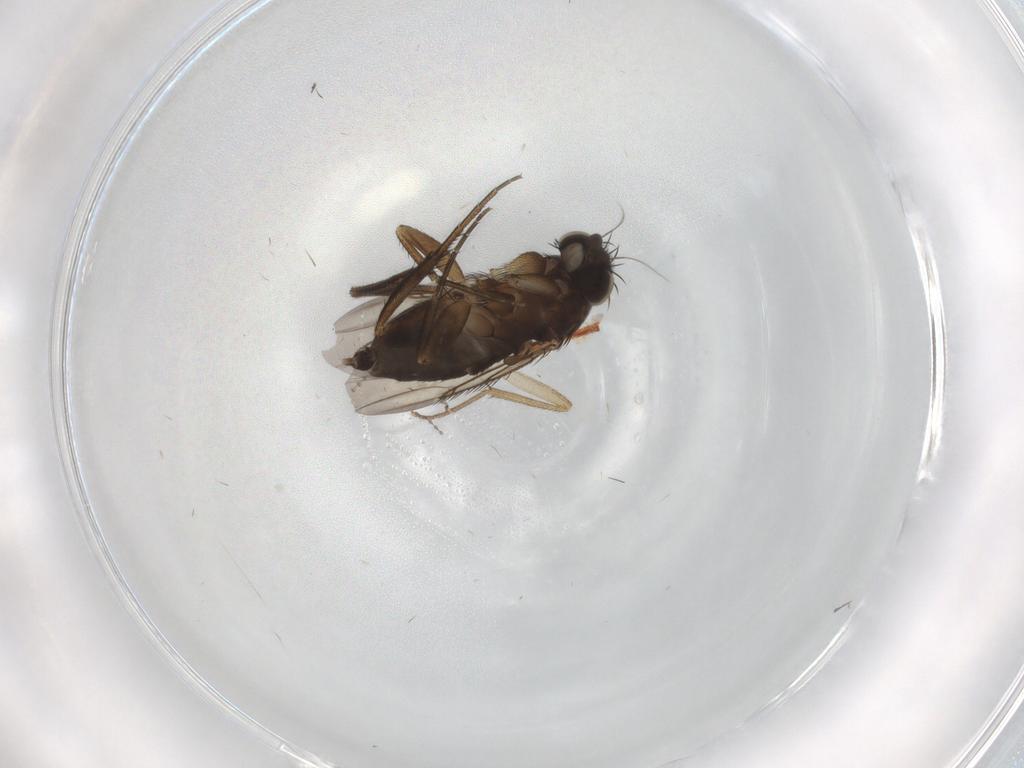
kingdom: Animalia
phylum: Arthropoda
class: Insecta
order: Diptera
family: Phoridae
